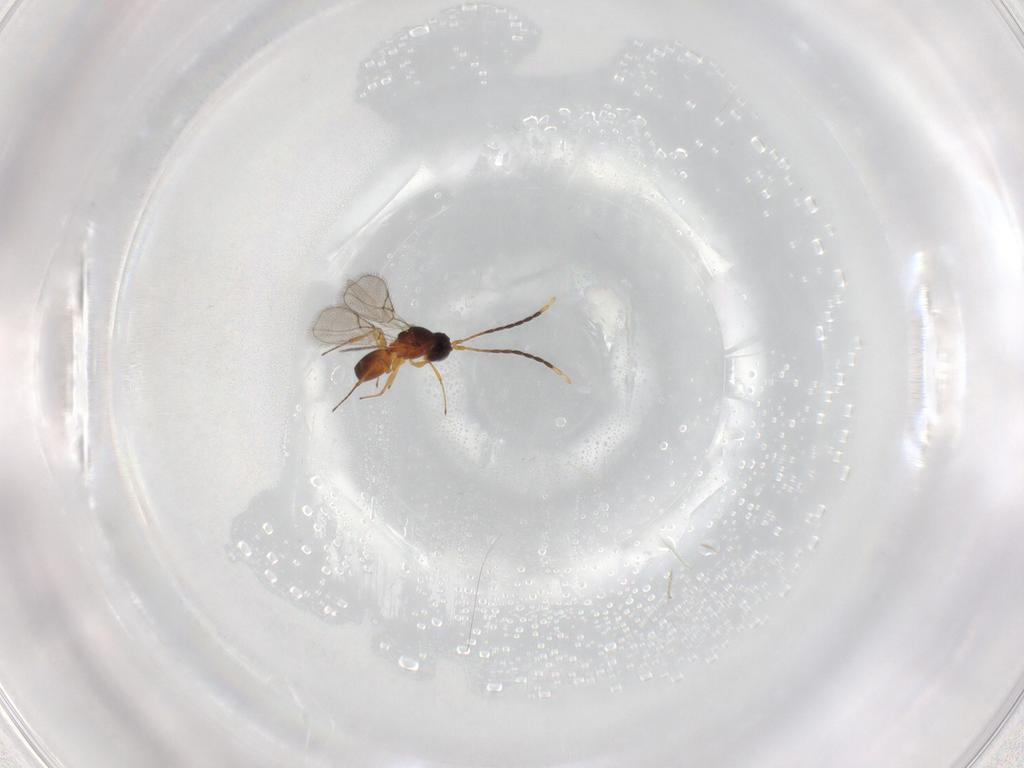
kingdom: Animalia
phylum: Arthropoda
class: Insecta
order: Hymenoptera
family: Figitidae
